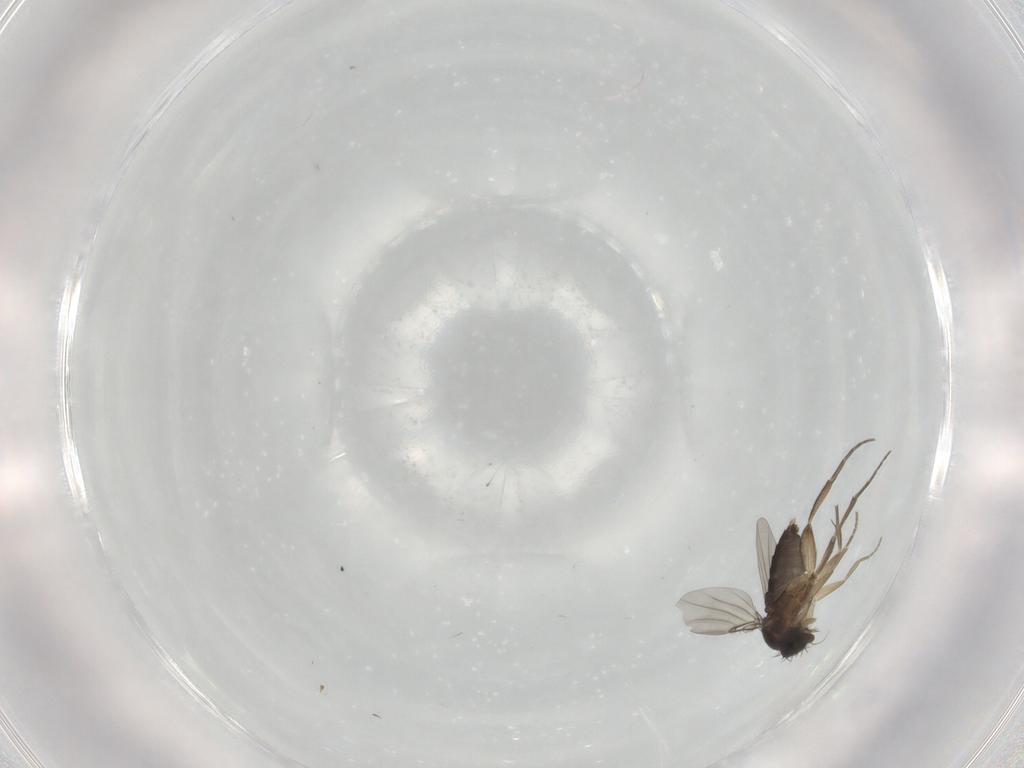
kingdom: Animalia
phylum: Arthropoda
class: Insecta
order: Diptera
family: Phoridae
